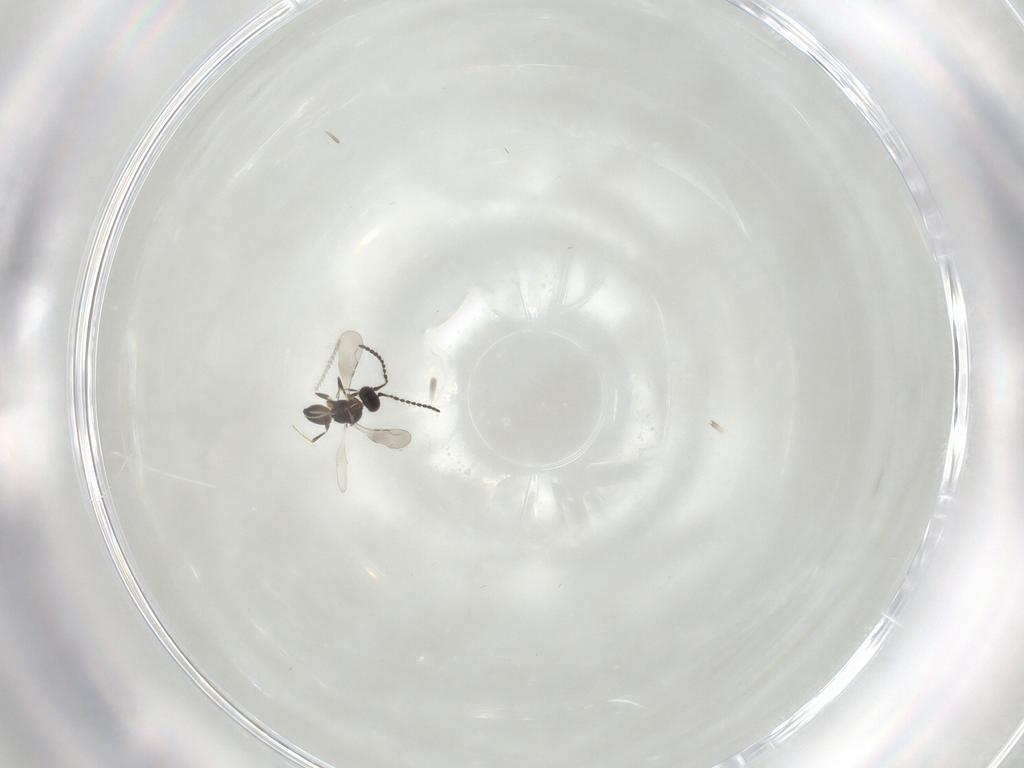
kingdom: Animalia
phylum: Arthropoda
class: Insecta
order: Hymenoptera
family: Ceraphronidae
